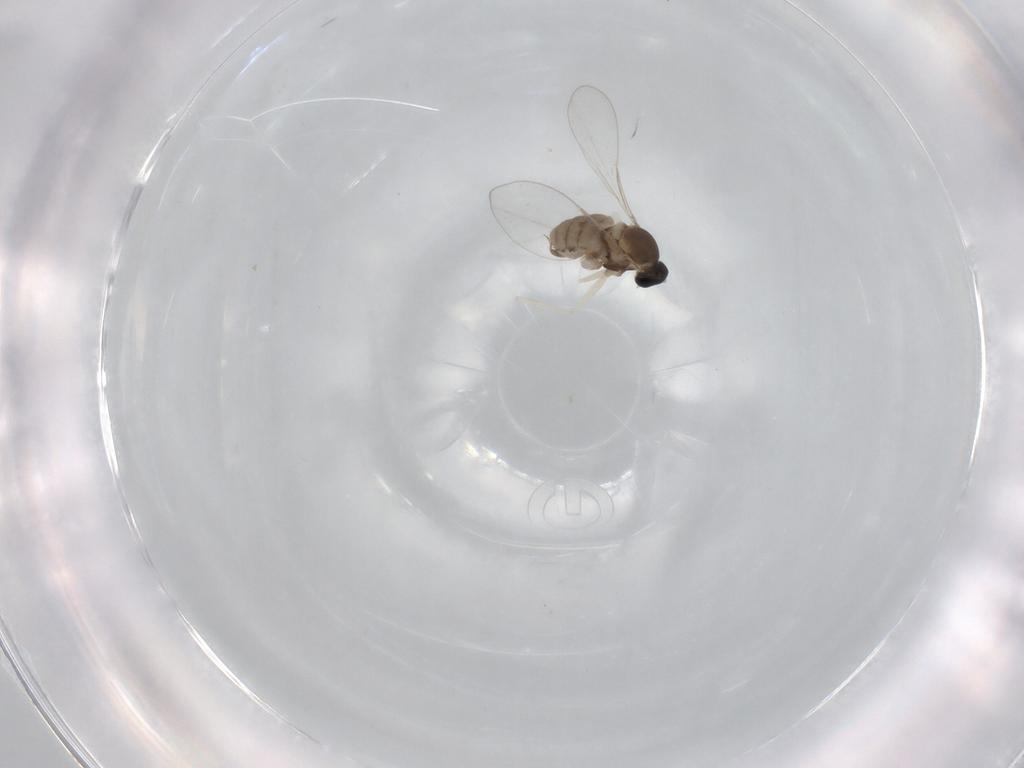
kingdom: Animalia
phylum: Arthropoda
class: Insecta
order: Diptera
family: Cecidomyiidae
